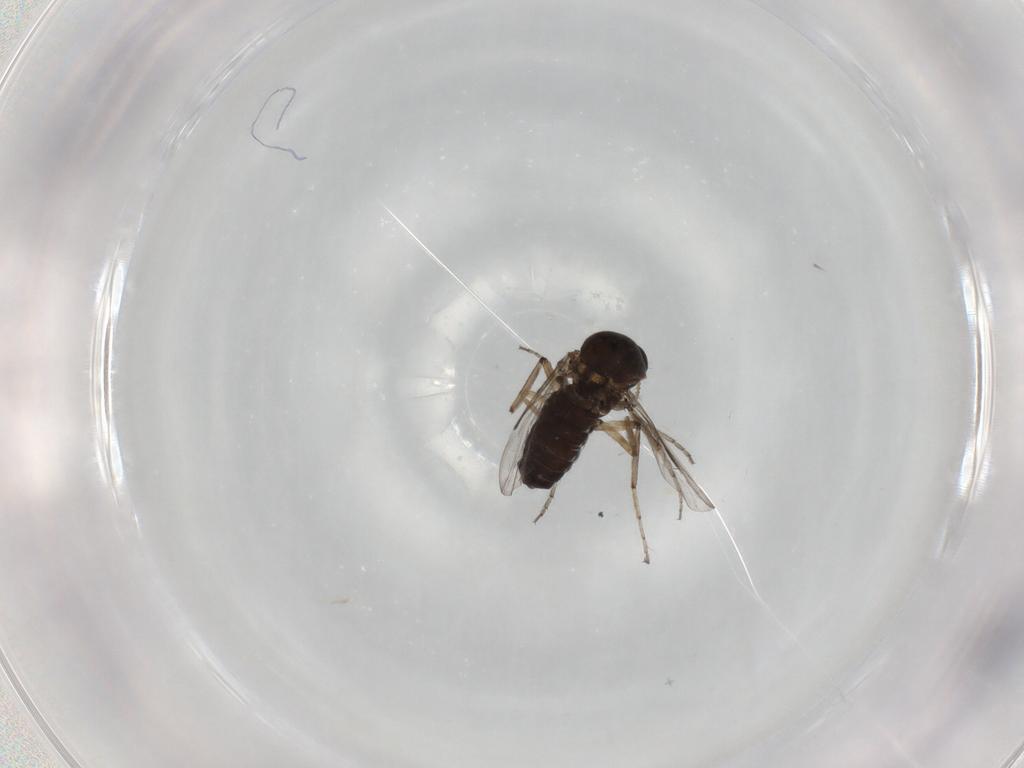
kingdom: Animalia
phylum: Arthropoda
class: Insecta
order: Diptera
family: Ceratopogonidae
